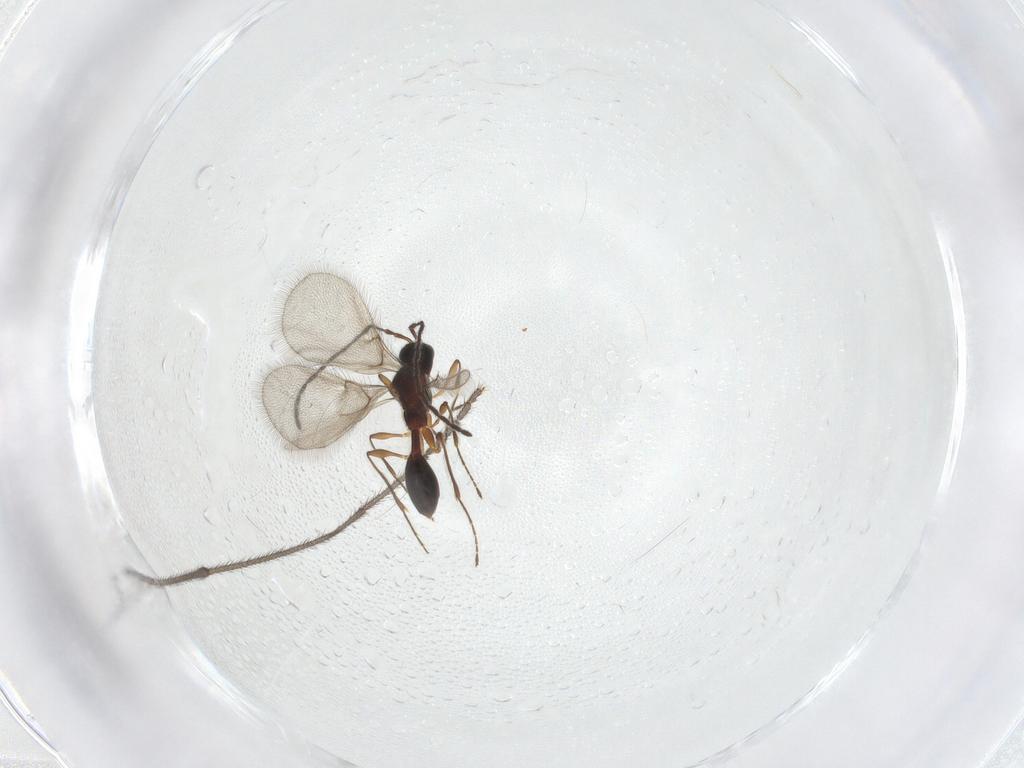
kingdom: Animalia
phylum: Arthropoda
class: Insecta
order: Hymenoptera
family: Diapriidae
